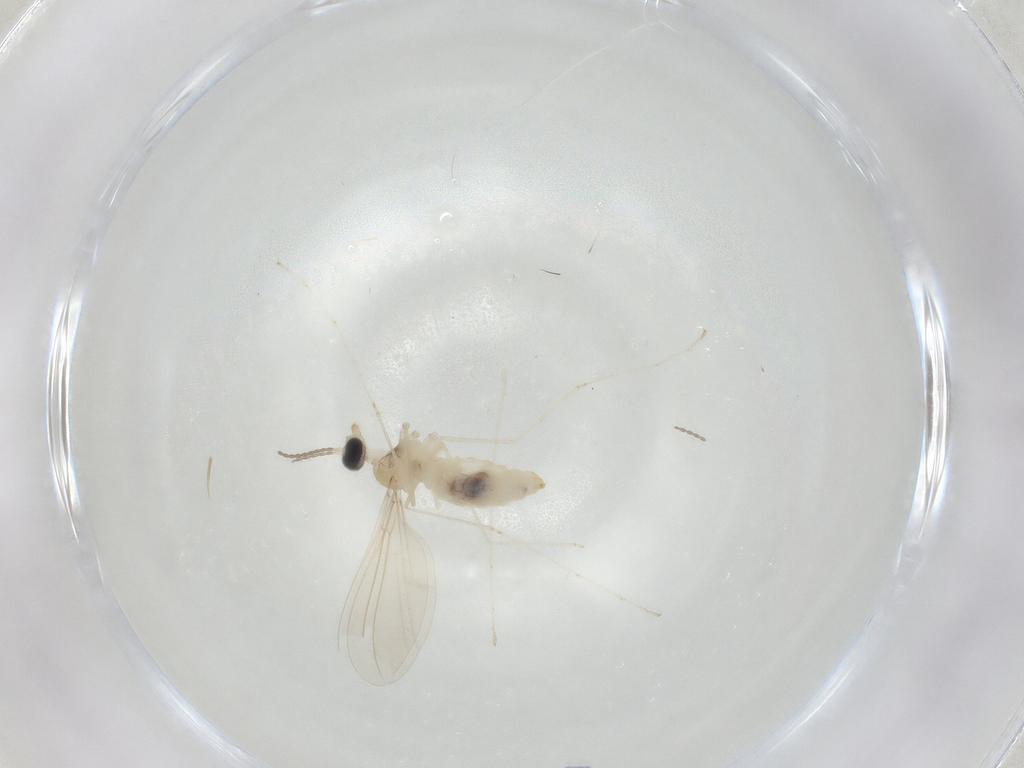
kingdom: Animalia
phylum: Arthropoda
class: Insecta
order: Diptera
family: Cecidomyiidae
